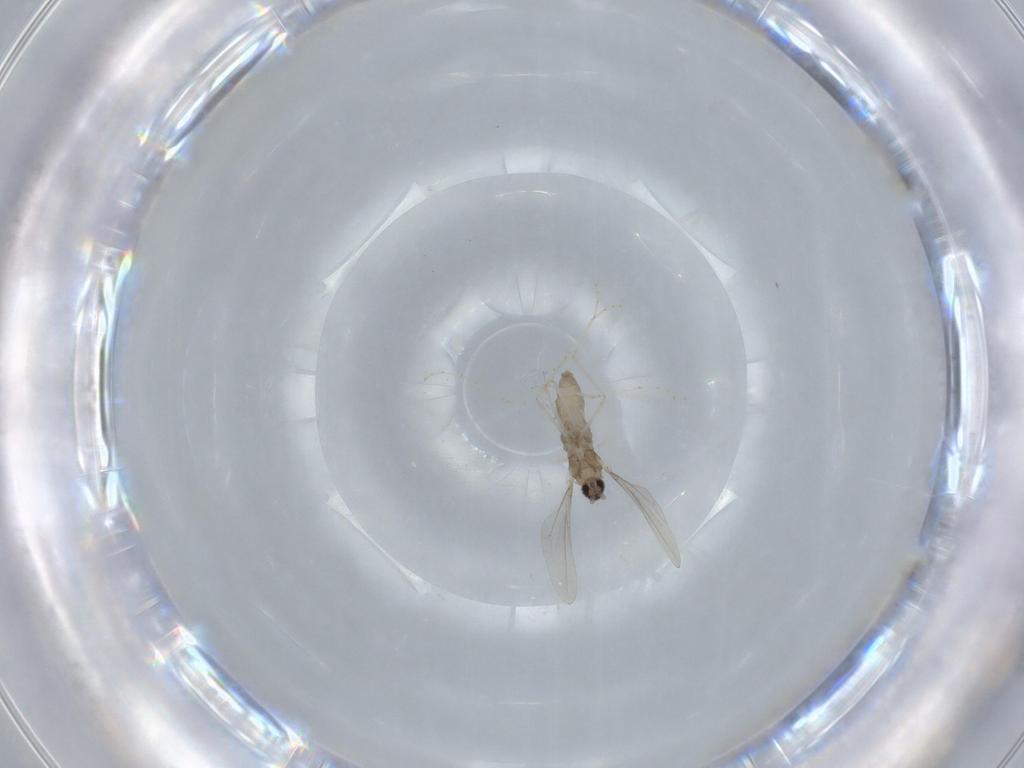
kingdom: Animalia
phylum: Arthropoda
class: Insecta
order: Diptera
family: Cecidomyiidae
